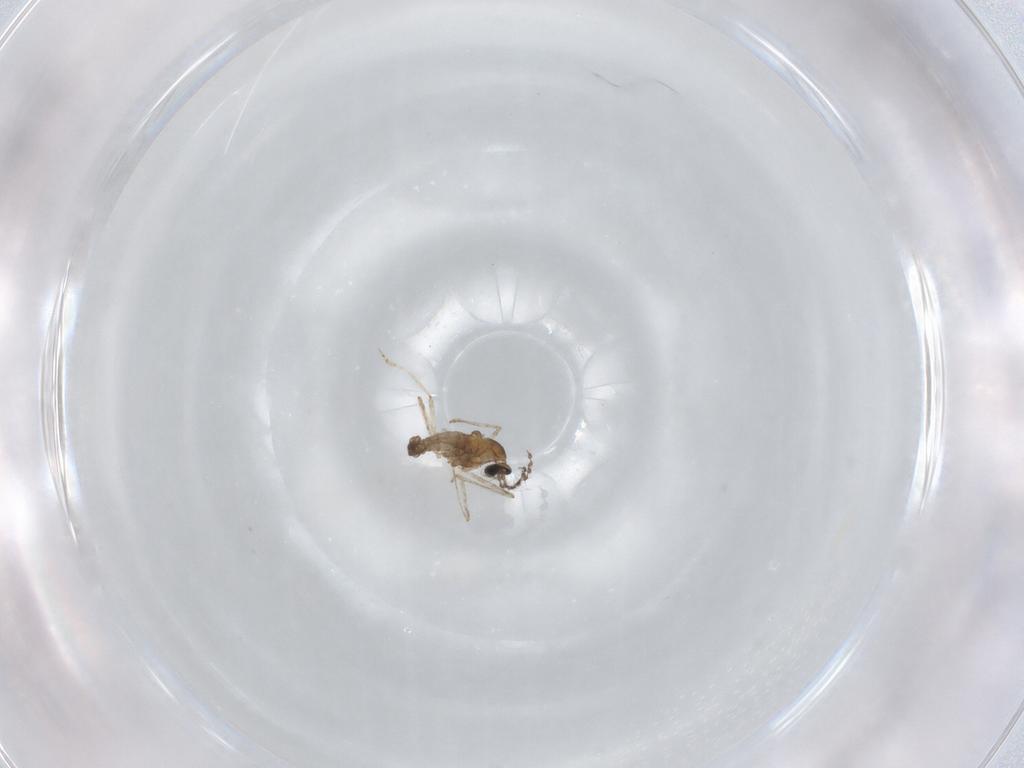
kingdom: Animalia
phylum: Arthropoda
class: Insecta
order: Diptera
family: Cecidomyiidae
